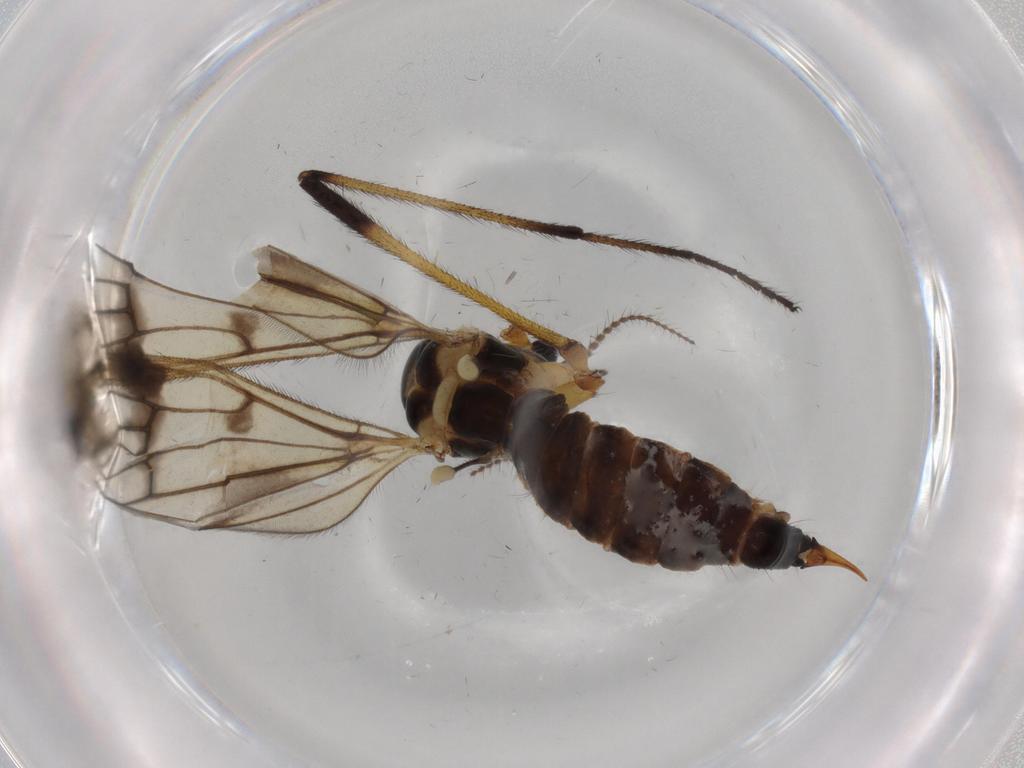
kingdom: Animalia
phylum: Arthropoda
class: Insecta
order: Diptera
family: Limoniidae
